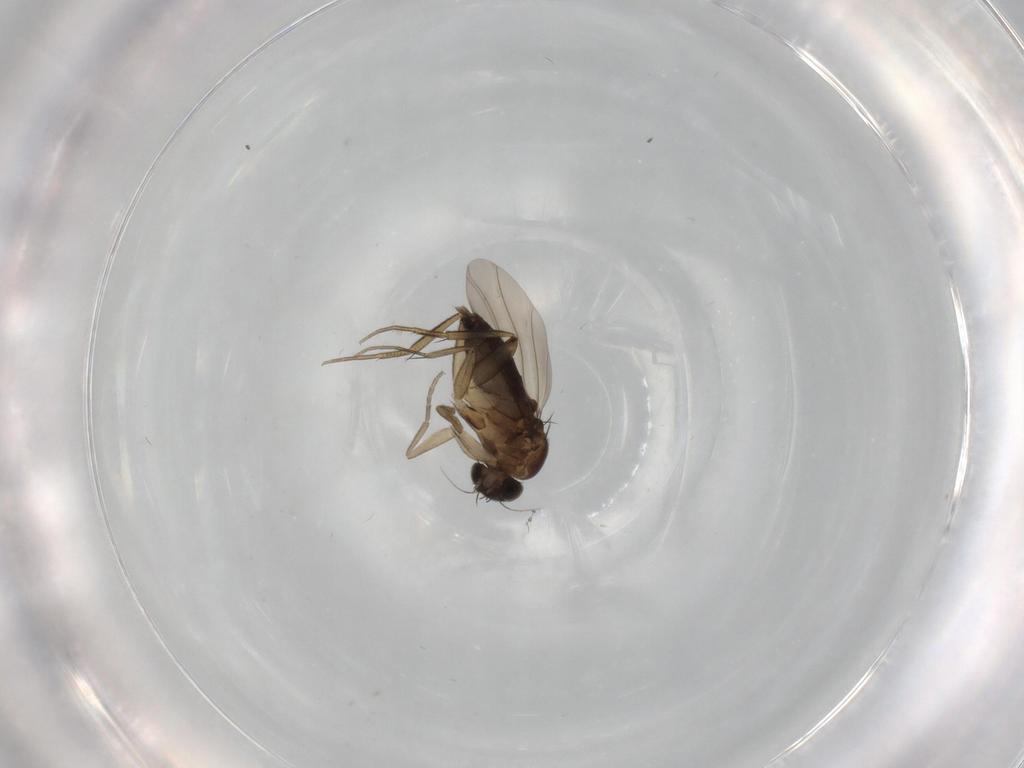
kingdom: Animalia
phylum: Arthropoda
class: Insecta
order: Diptera
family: Phoridae
